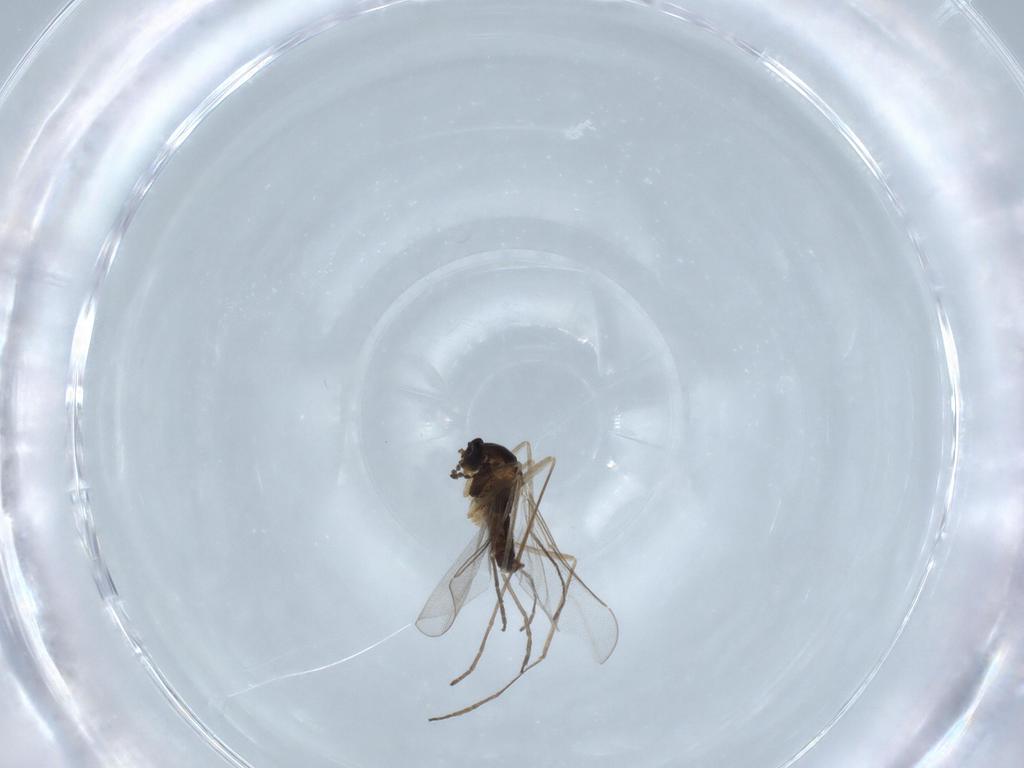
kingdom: Animalia
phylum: Arthropoda
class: Insecta
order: Diptera
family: Cecidomyiidae
